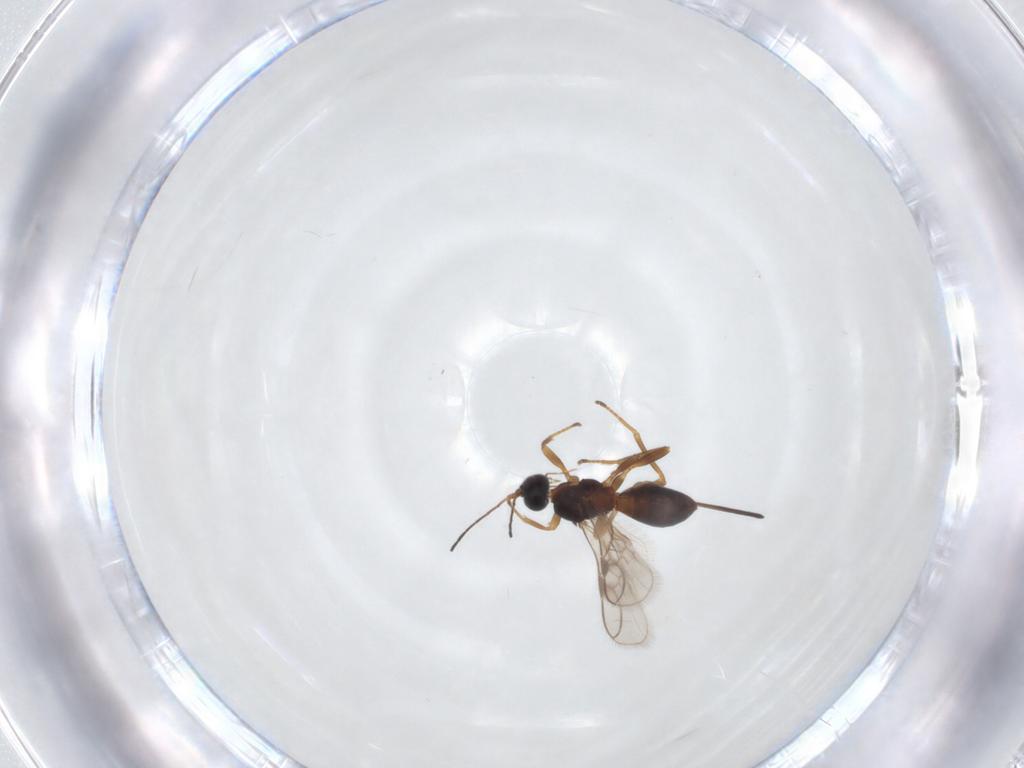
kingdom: Animalia
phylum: Arthropoda
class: Insecta
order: Hymenoptera
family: Braconidae
